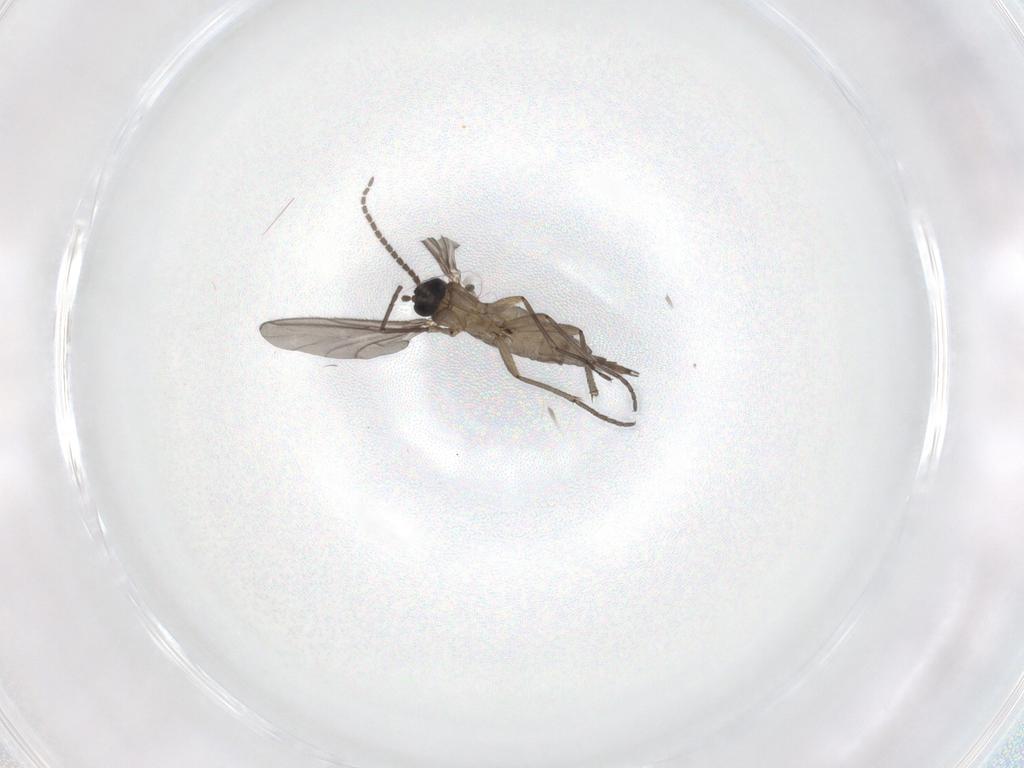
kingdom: Animalia
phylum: Arthropoda
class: Insecta
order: Diptera
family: Sciaridae
